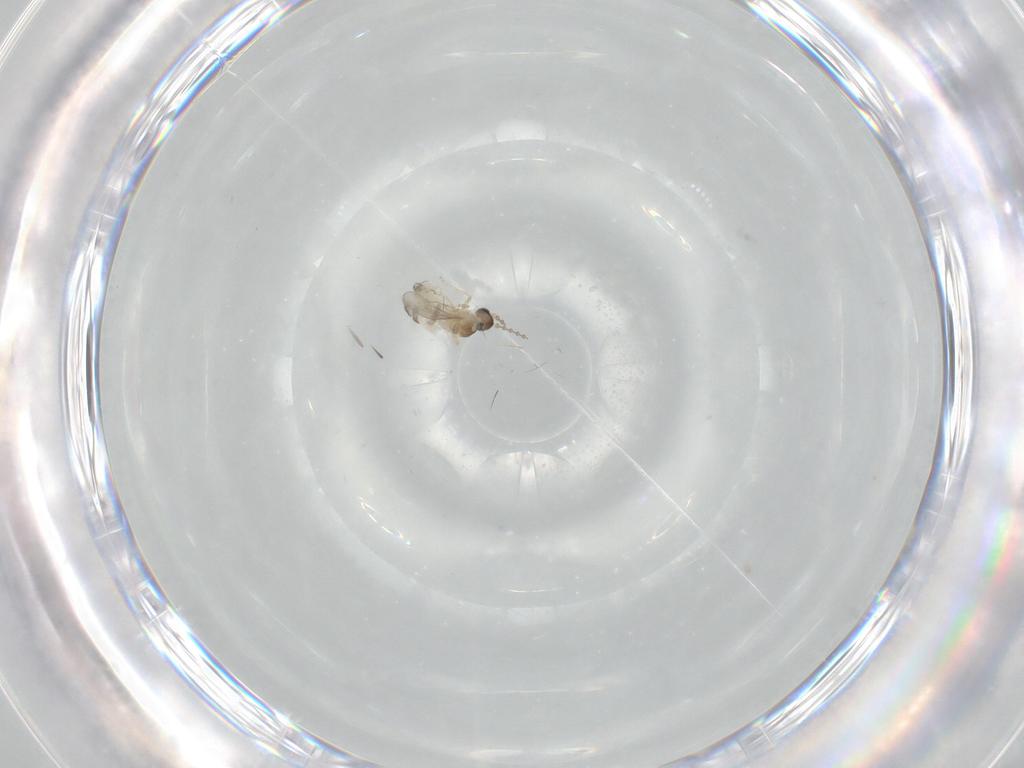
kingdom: Animalia
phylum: Arthropoda
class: Insecta
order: Diptera
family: Cecidomyiidae
